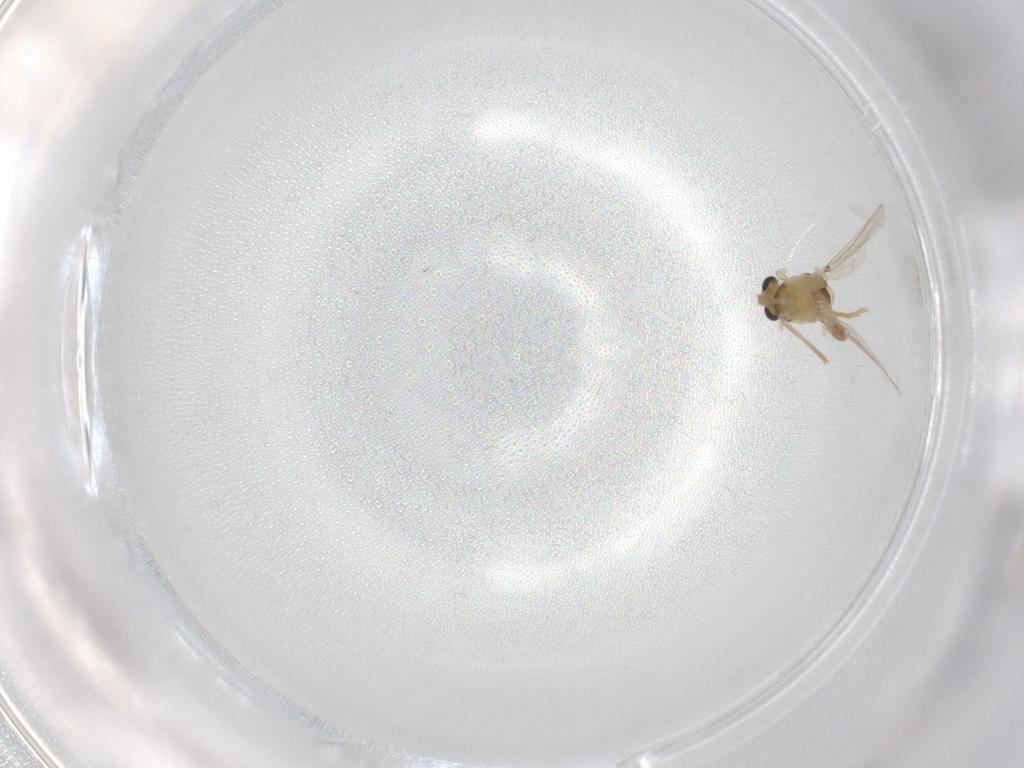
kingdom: Animalia
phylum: Arthropoda
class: Insecta
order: Diptera
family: Chironomidae
